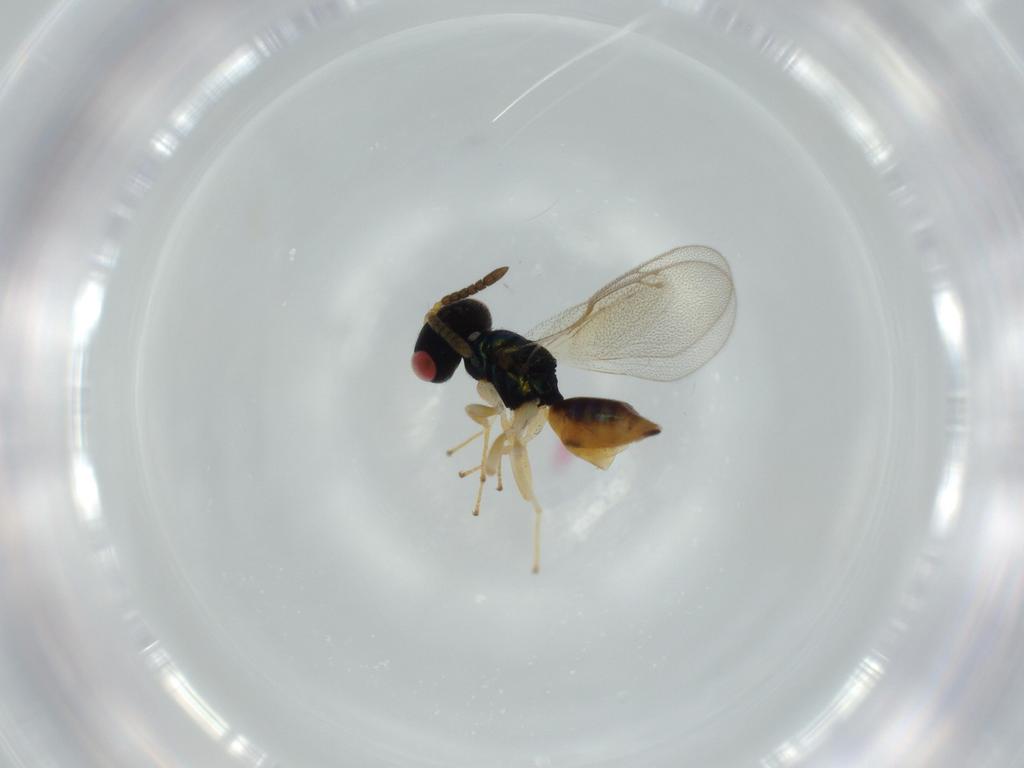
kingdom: Animalia
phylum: Arthropoda
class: Insecta
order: Hymenoptera
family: Pteromalidae
